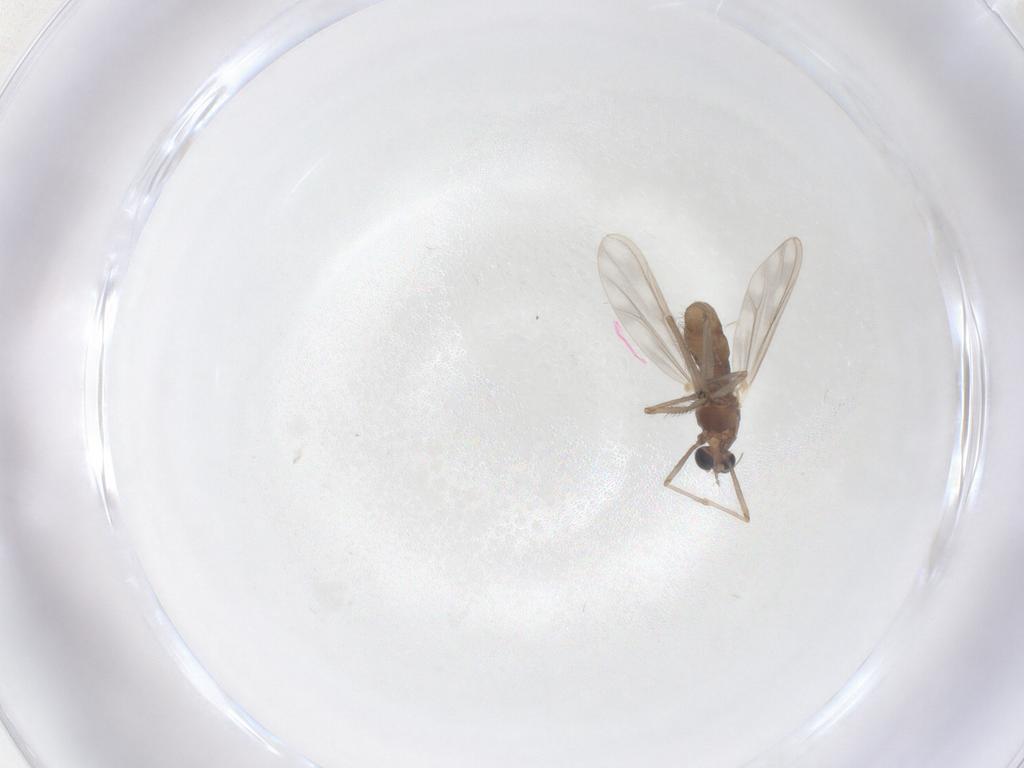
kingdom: Animalia
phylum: Arthropoda
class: Insecta
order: Diptera
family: Chironomidae
